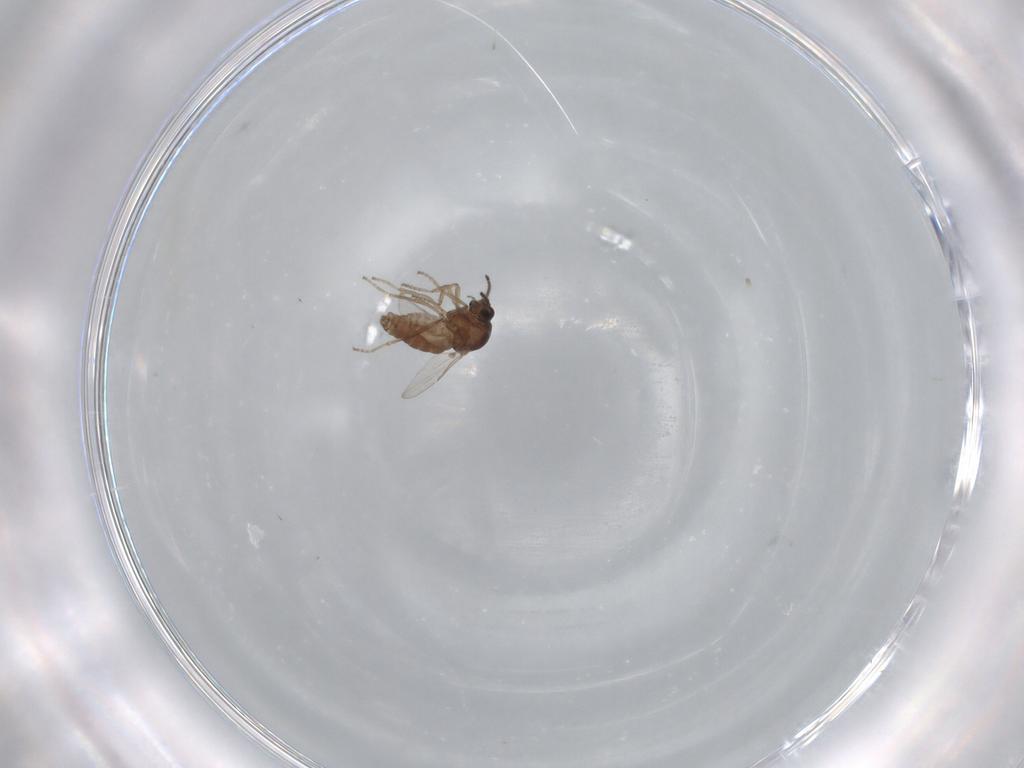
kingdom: Animalia
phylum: Arthropoda
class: Insecta
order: Diptera
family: Ceratopogonidae
